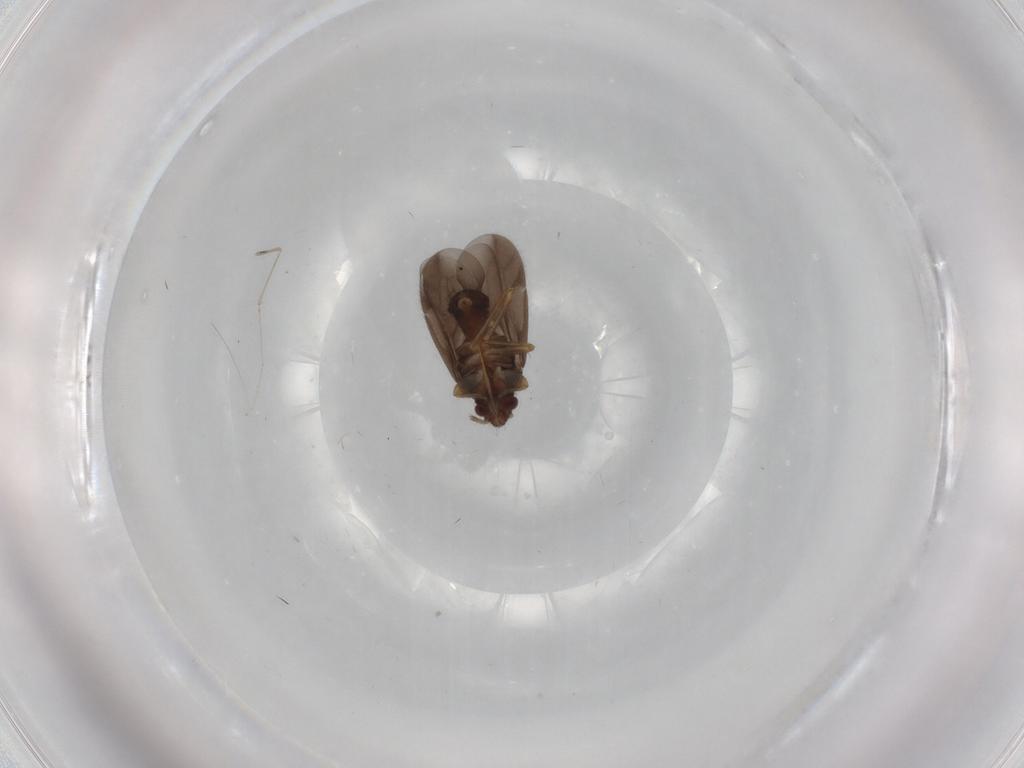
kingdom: Animalia
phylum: Arthropoda
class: Insecta
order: Hemiptera
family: Ceratocombidae
